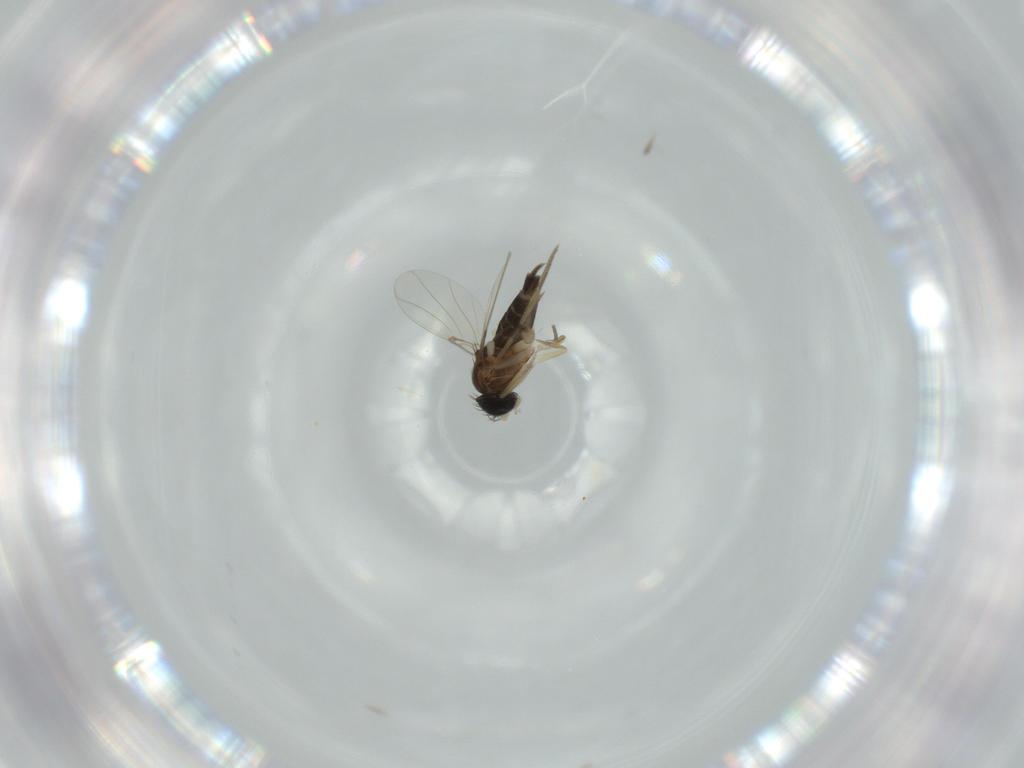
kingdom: Animalia
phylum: Arthropoda
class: Insecta
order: Diptera
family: Phoridae
